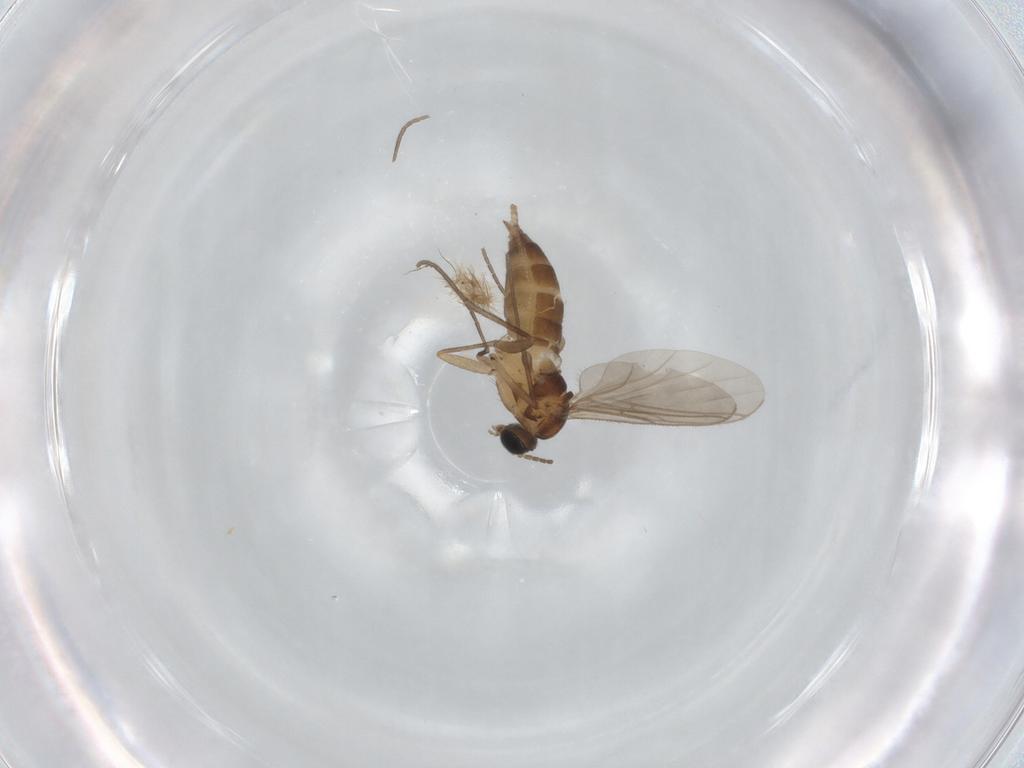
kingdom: Animalia
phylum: Arthropoda
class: Insecta
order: Diptera
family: Sciaridae
